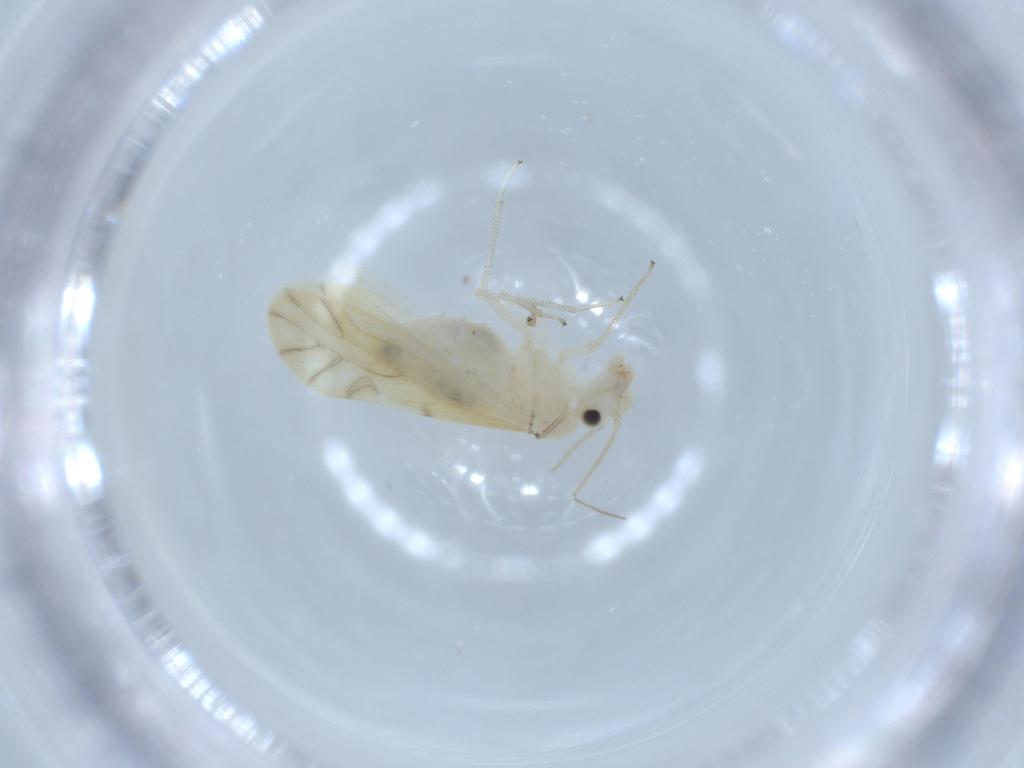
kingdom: Animalia
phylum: Arthropoda
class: Insecta
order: Psocodea
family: Caeciliusidae
